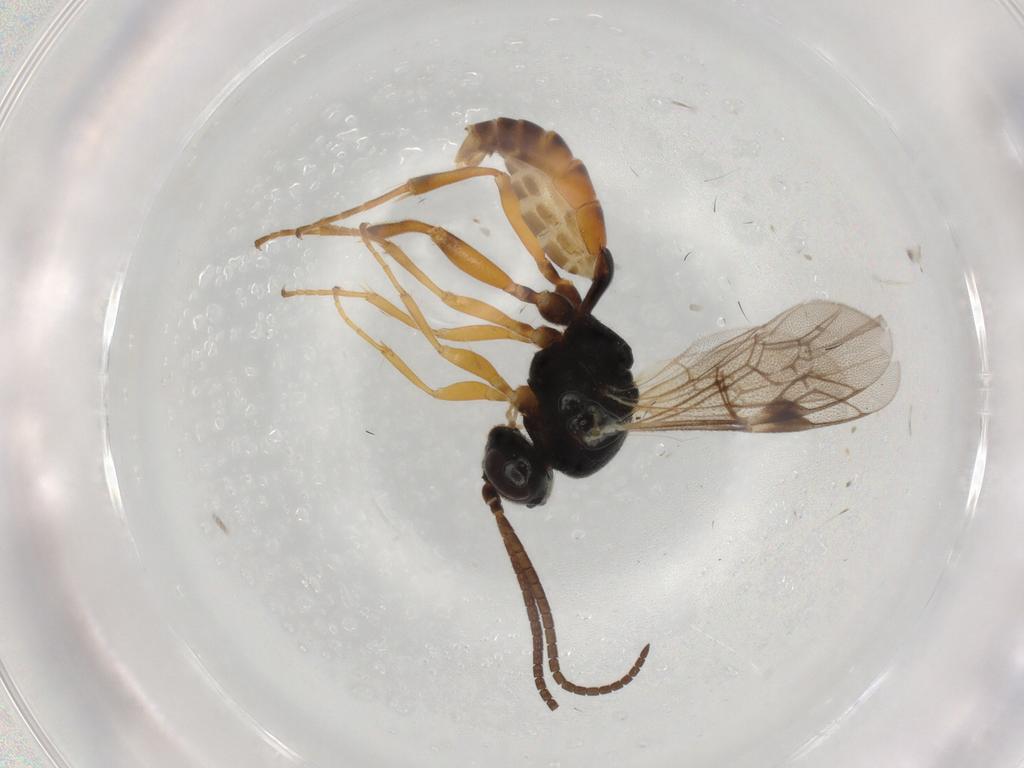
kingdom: Animalia
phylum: Arthropoda
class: Insecta
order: Hymenoptera
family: Ichneumonidae
